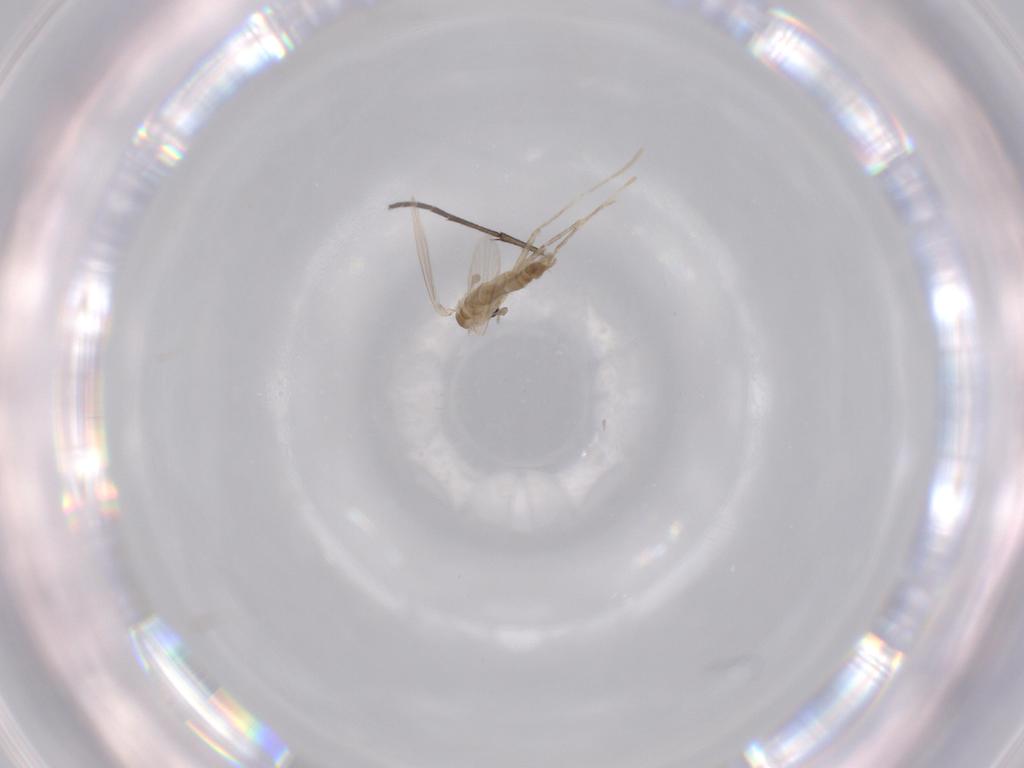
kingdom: Animalia
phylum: Arthropoda
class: Insecta
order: Diptera
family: Psychodidae
